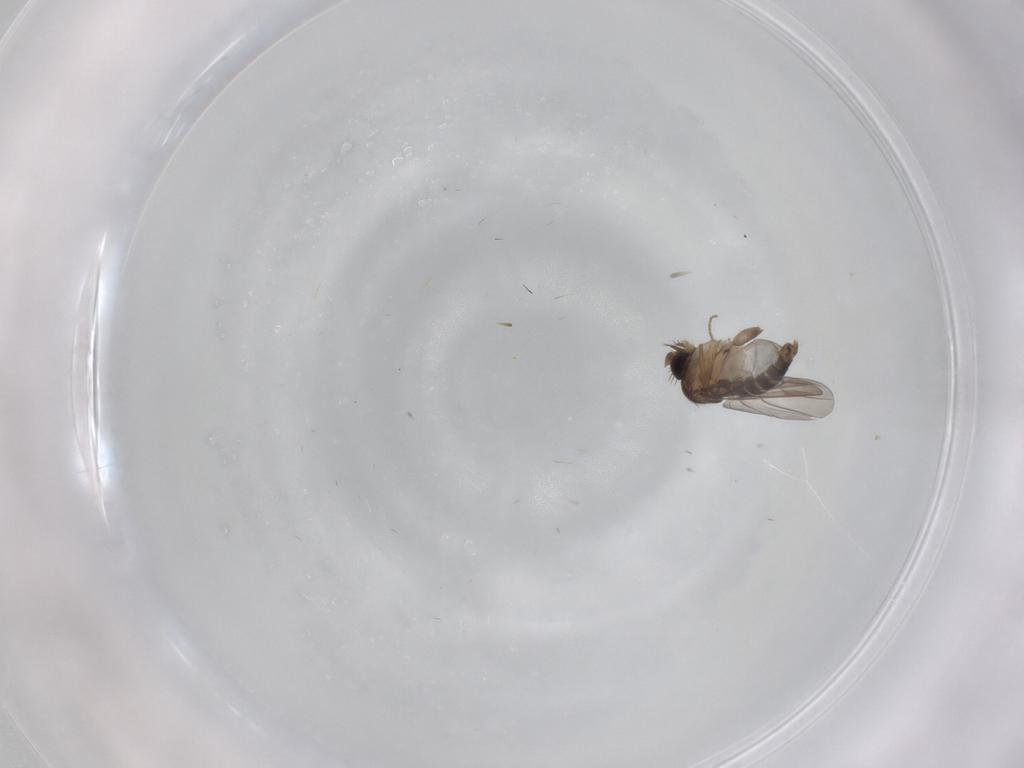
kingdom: Animalia
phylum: Arthropoda
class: Insecta
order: Diptera
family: Phoridae
